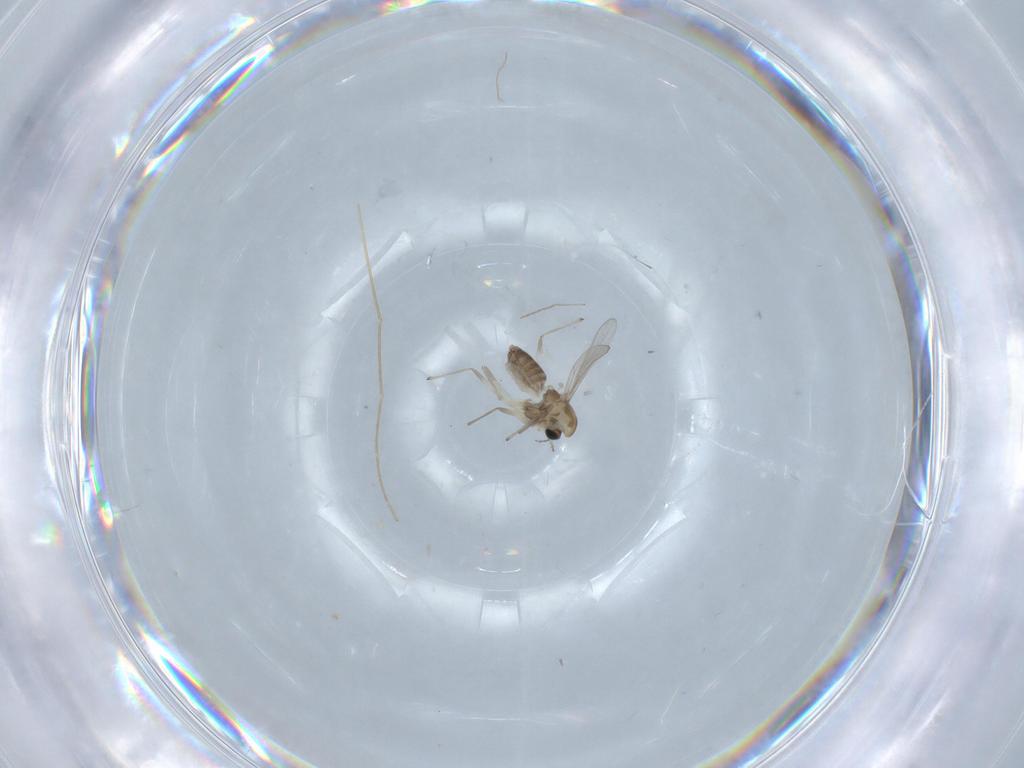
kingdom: Animalia
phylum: Arthropoda
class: Insecta
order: Diptera
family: Chironomidae
